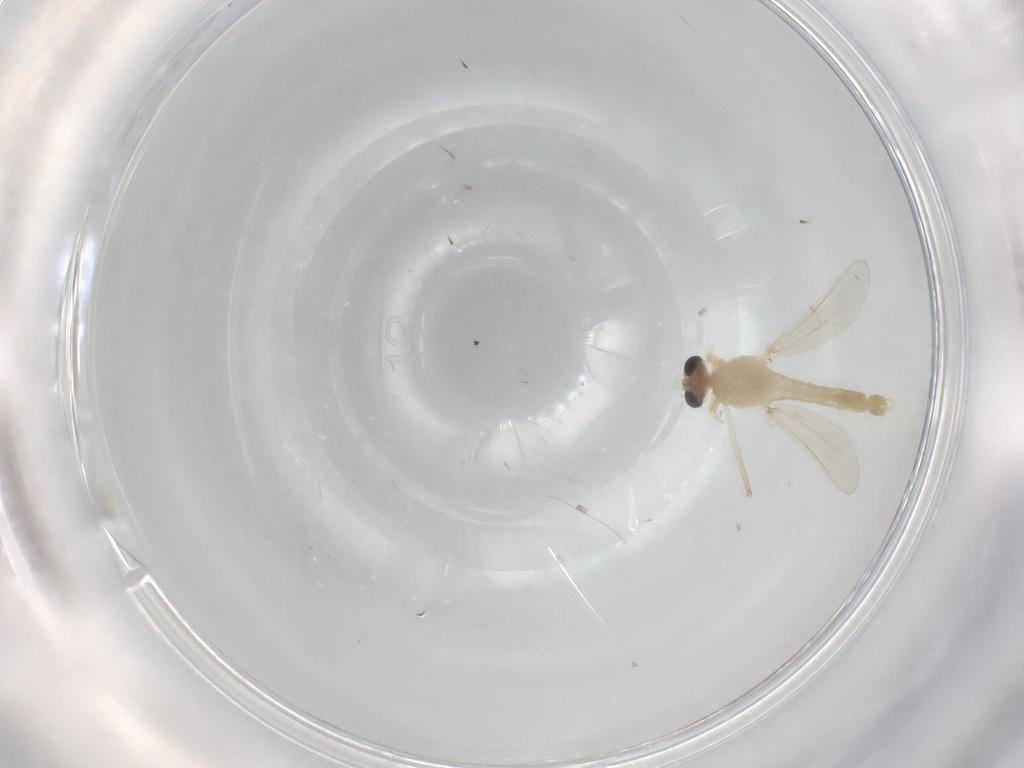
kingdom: Animalia
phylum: Arthropoda
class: Insecta
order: Diptera
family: Chironomidae
